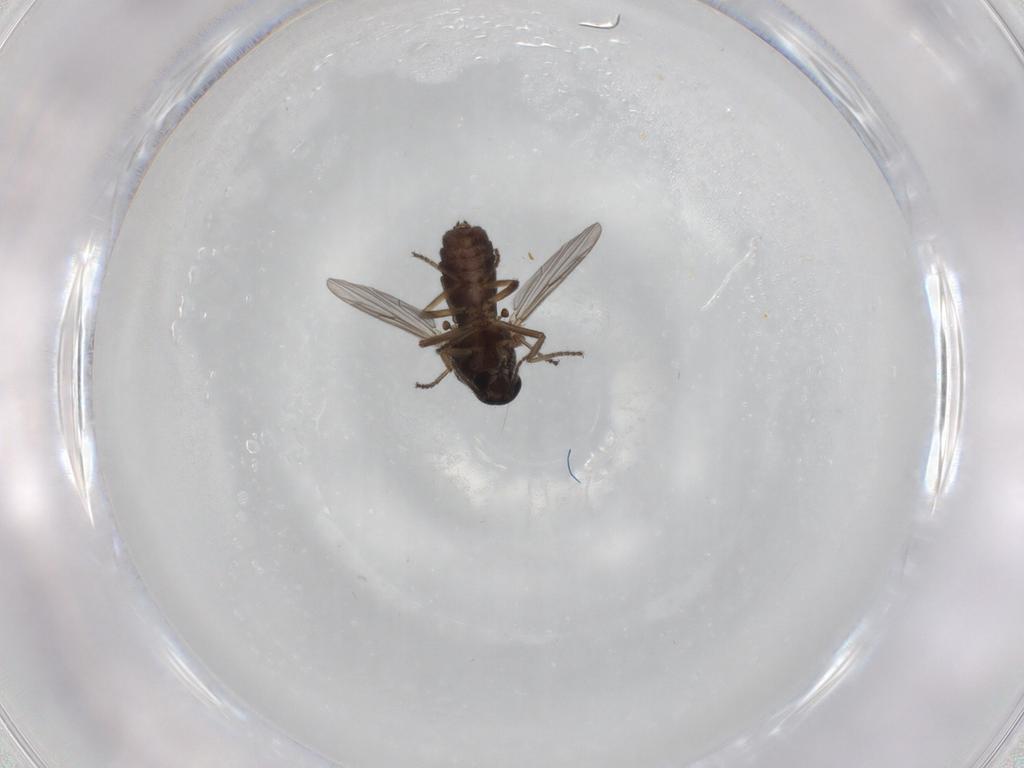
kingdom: Animalia
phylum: Arthropoda
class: Insecta
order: Diptera
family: Ceratopogonidae
